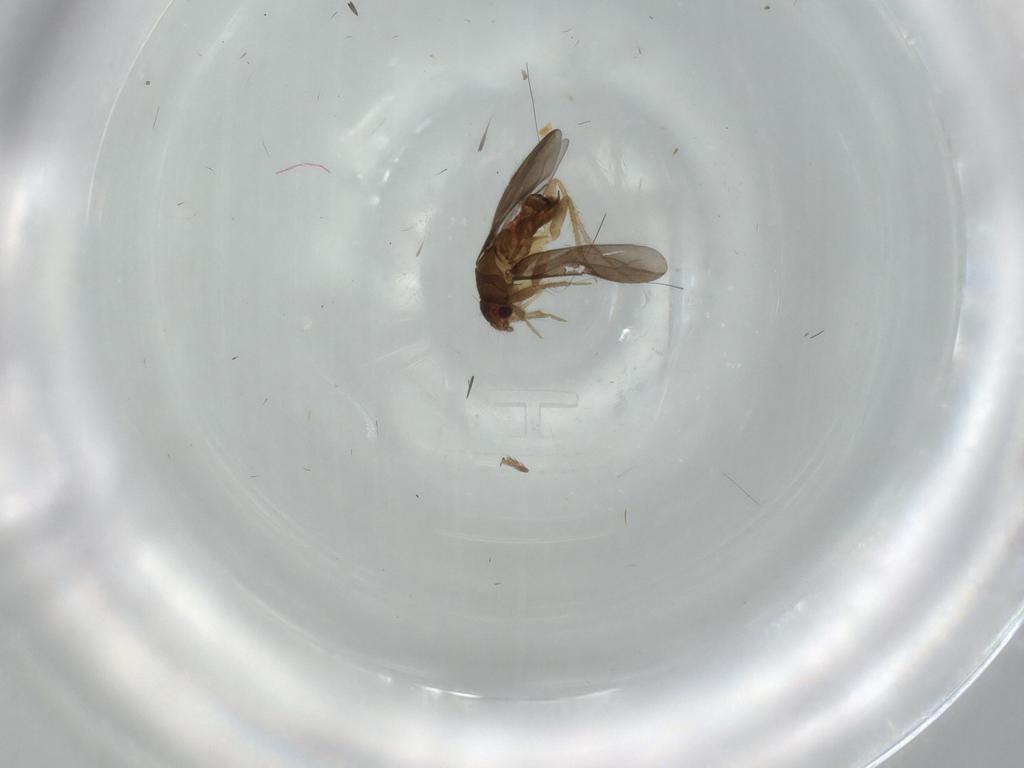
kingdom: Animalia
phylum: Arthropoda
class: Insecta
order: Hemiptera
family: Ceratocombidae
